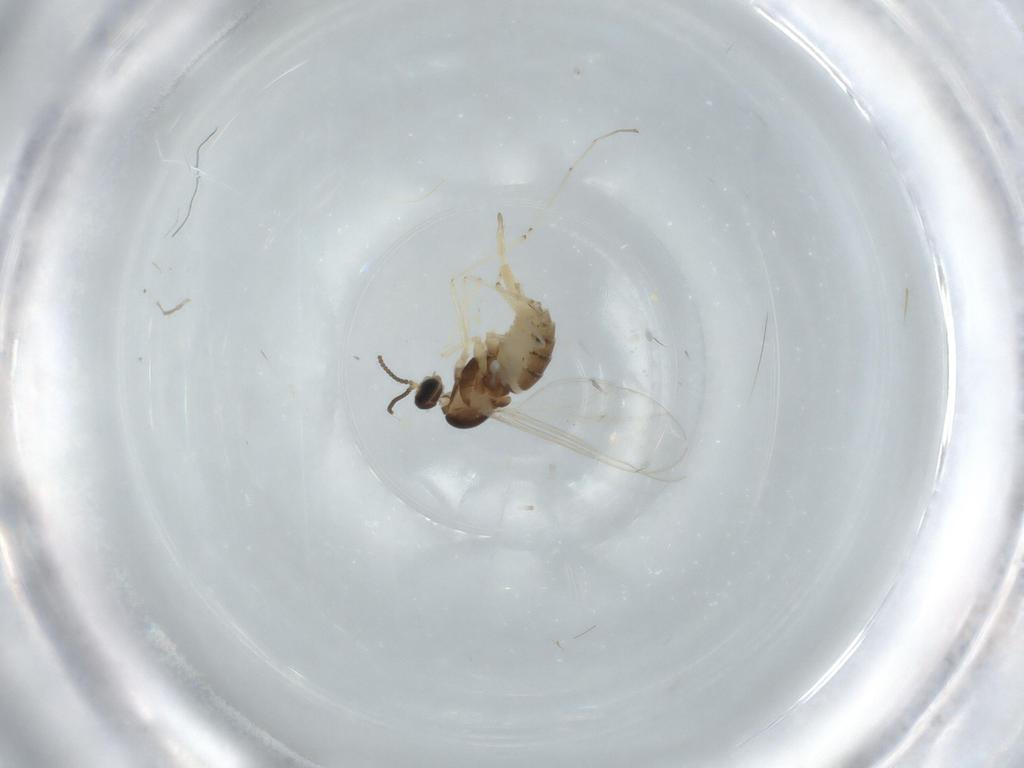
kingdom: Animalia
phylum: Arthropoda
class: Insecta
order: Diptera
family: Cecidomyiidae
